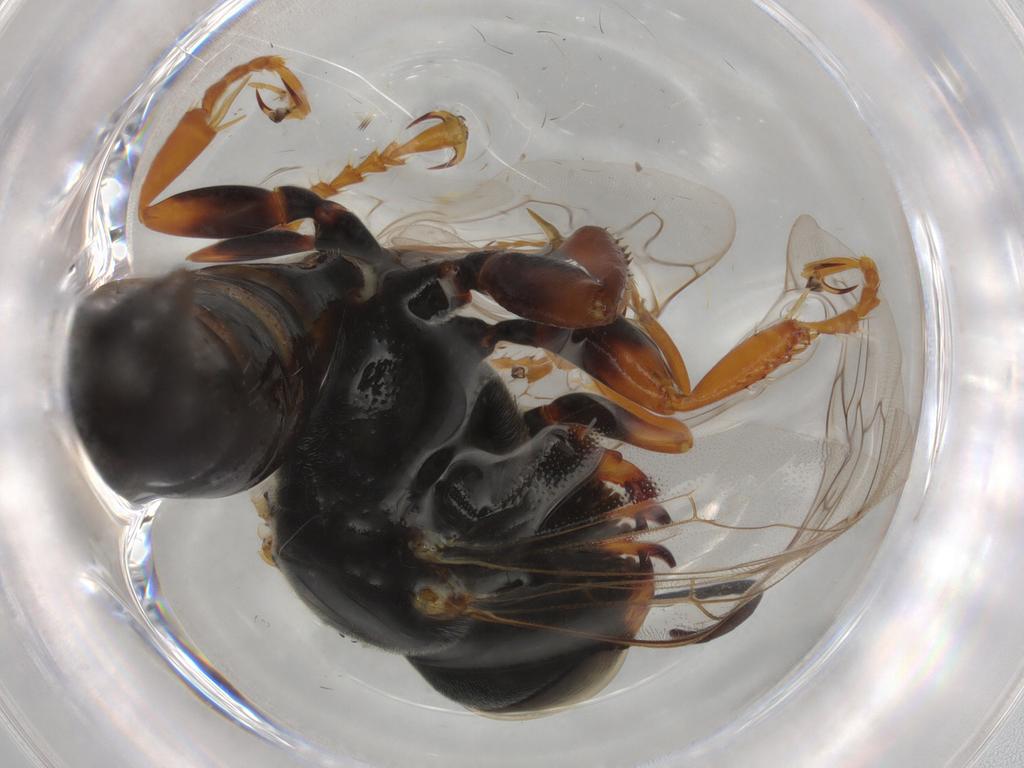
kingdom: Animalia
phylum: Arthropoda
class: Insecta
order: Hymenoptera
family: Crabronidae
